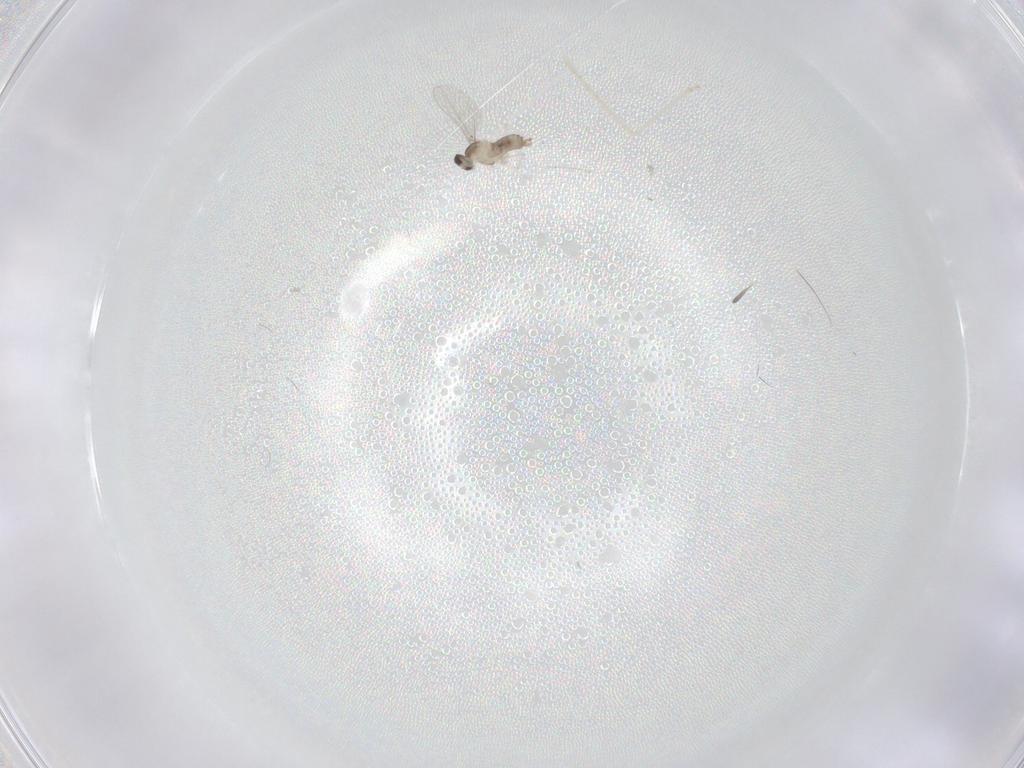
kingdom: Animalia
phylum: Arthropoda
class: Insecta
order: Diptera
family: Cecidomyiidae
